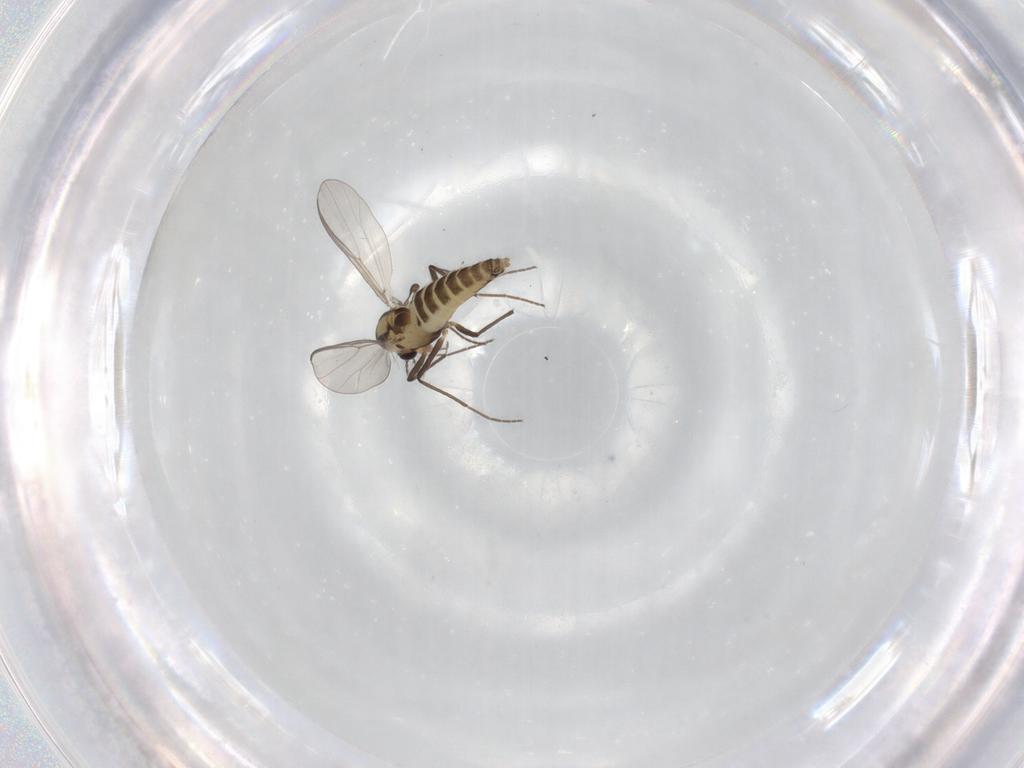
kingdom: Animalia
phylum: Arthropoda
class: Insecta
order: Diptera
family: Chironomidae
